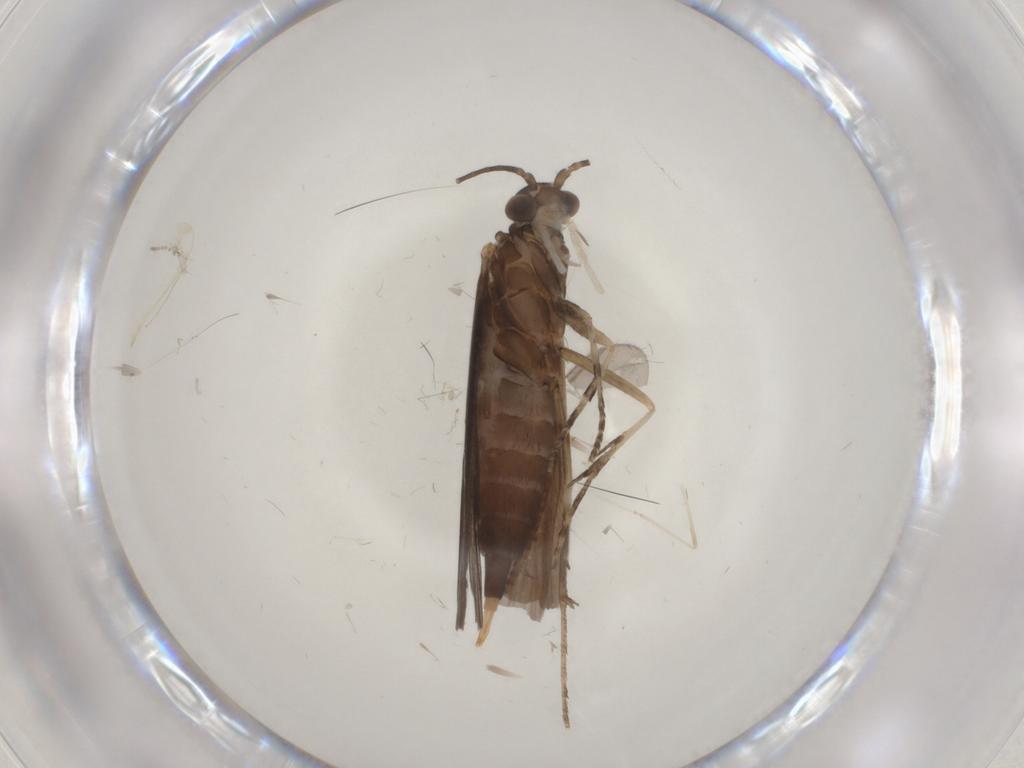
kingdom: Animalia
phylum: Arthropoda
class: Insecta
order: Trichoptera
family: Xiphocentronidae
